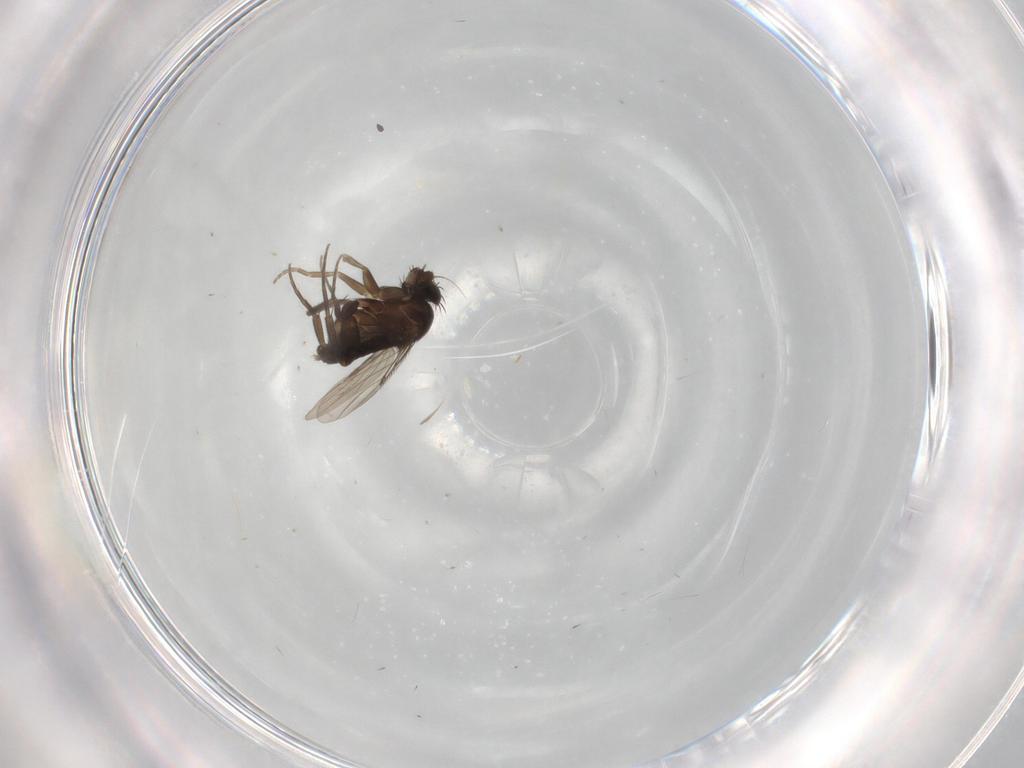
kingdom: Animalia
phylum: Arthropoda
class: Insecta
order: Diptera
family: Phoridae
